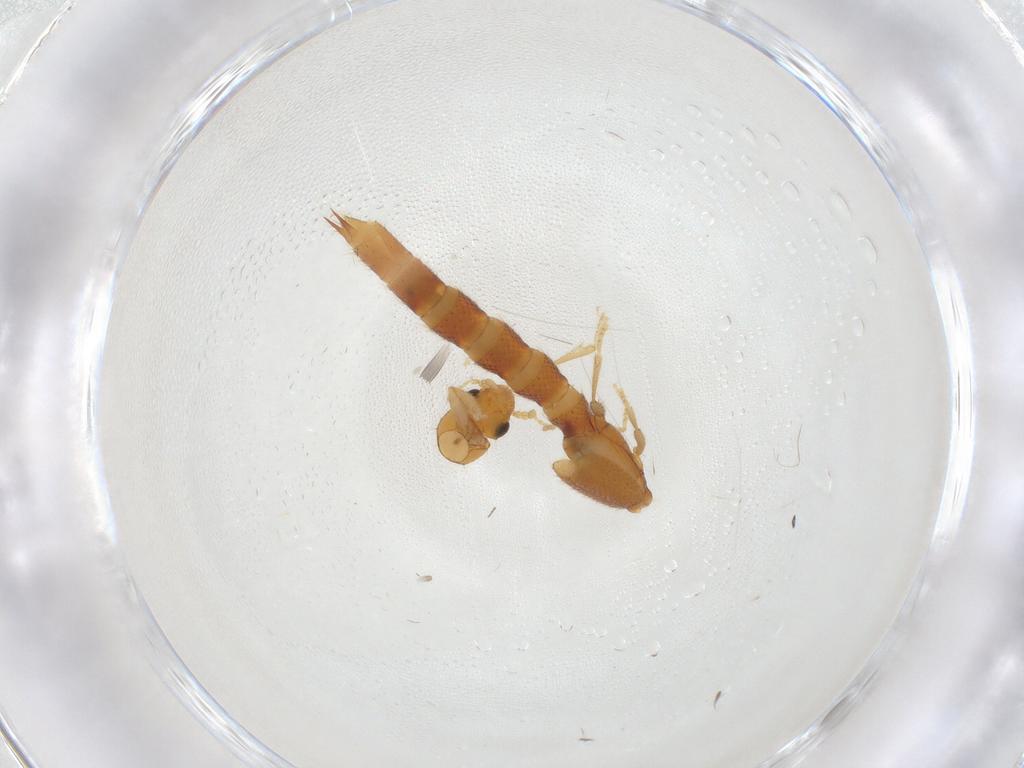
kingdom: Animalia
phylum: Arthropoda
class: Insecta
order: Coleoptera
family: Staphylinidae
